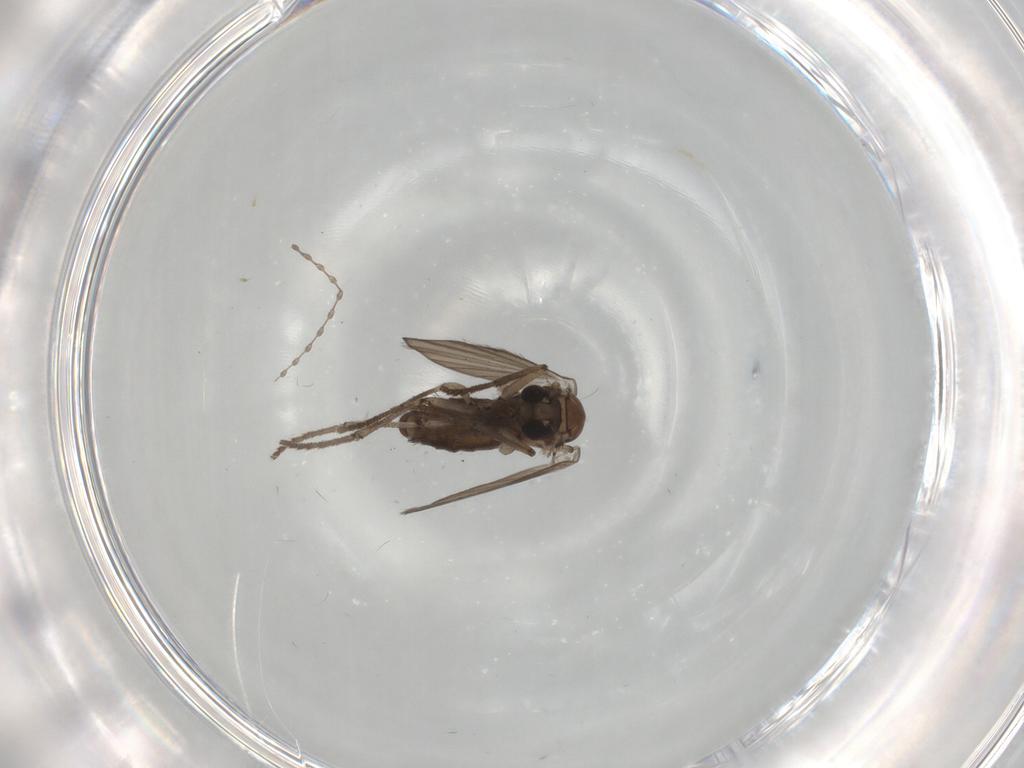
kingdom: Animalia
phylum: Arthropoda
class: Insecta
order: Diptera
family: Cecidomyiidae
